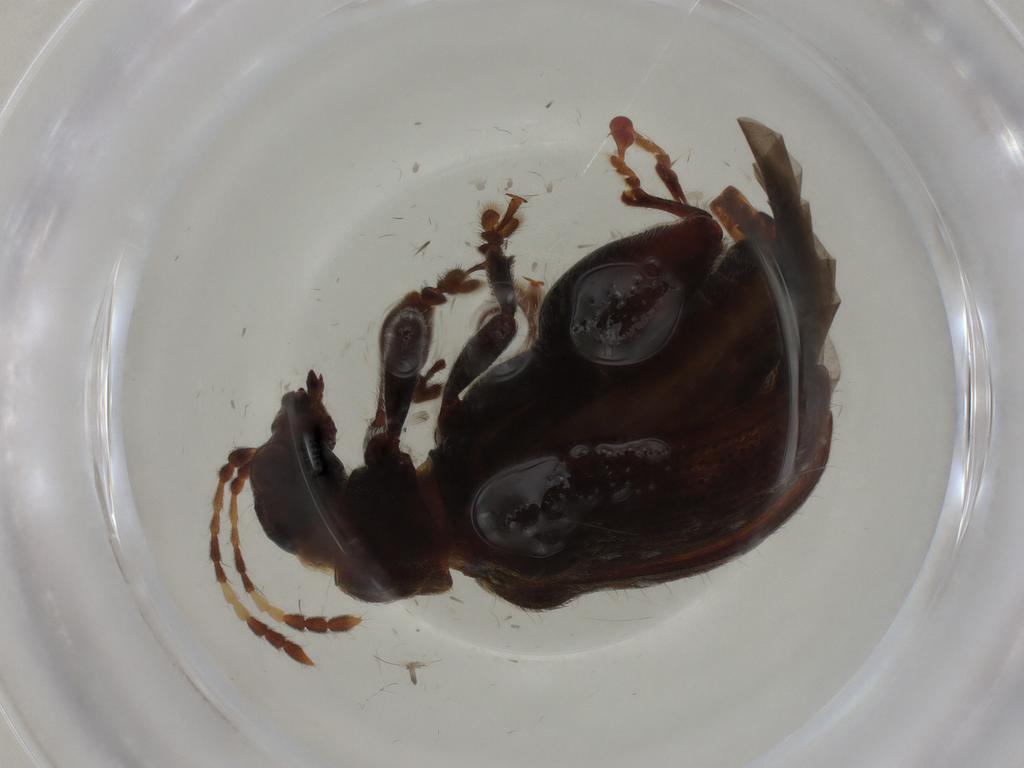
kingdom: Animalia
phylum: Arthropoda
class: Insecta
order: Coleoptera
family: Chrysomelidae
